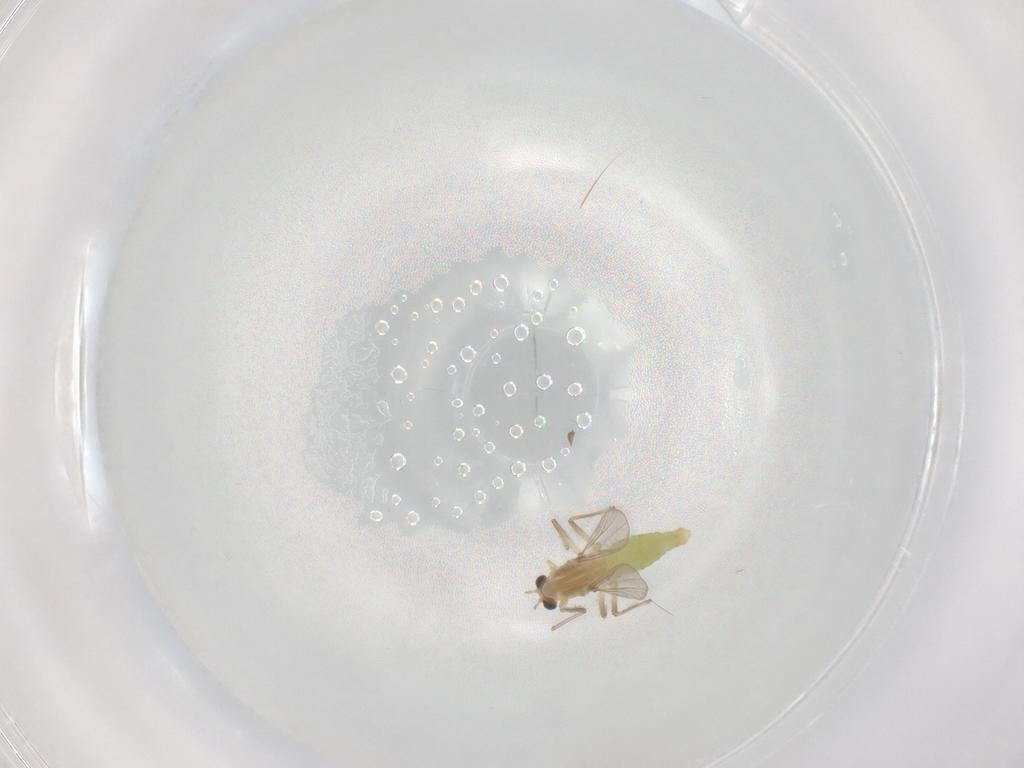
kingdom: Animalia
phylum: Arthropoda
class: Insecta
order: Diptera
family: Chironomidae
